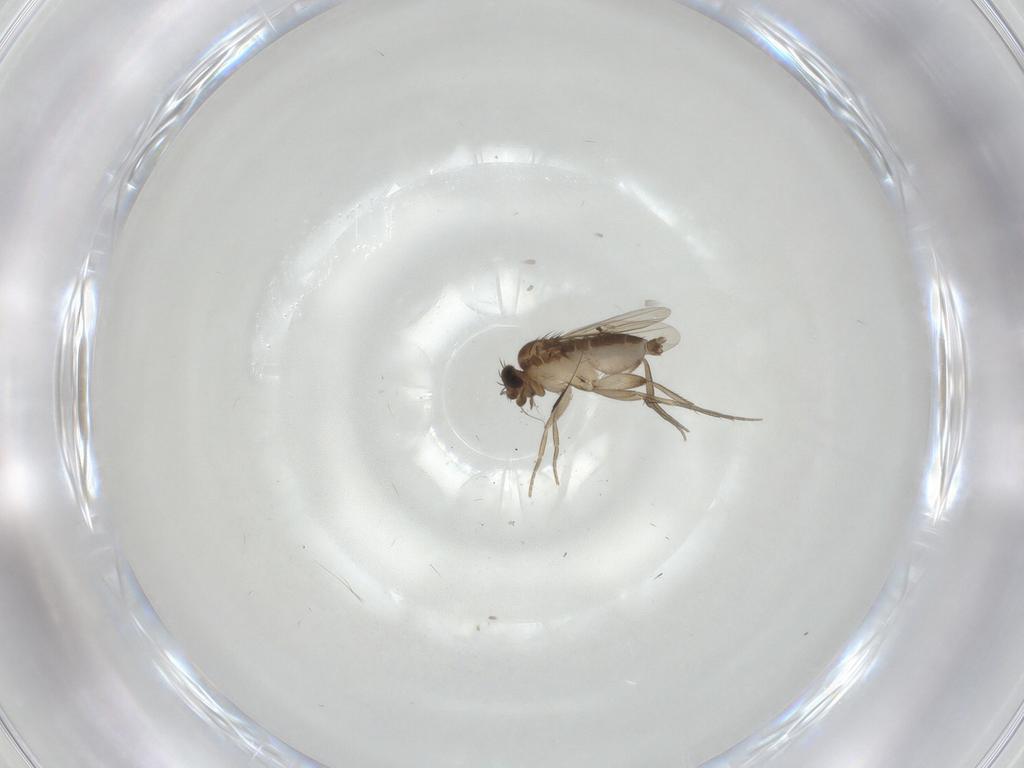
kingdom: Animalia
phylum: Arthropoda
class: Insecta
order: Diptera
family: Phoridae
